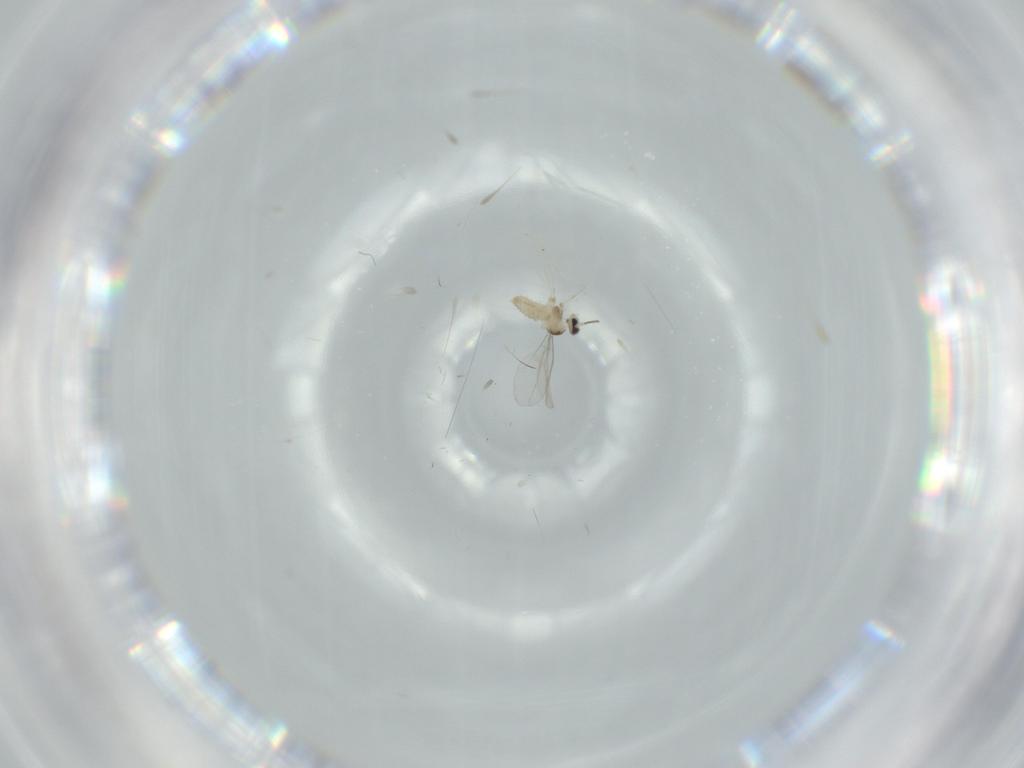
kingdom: Animalia
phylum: Arthropoda
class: Insecta
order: Diptera
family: Cecidomyiidae
